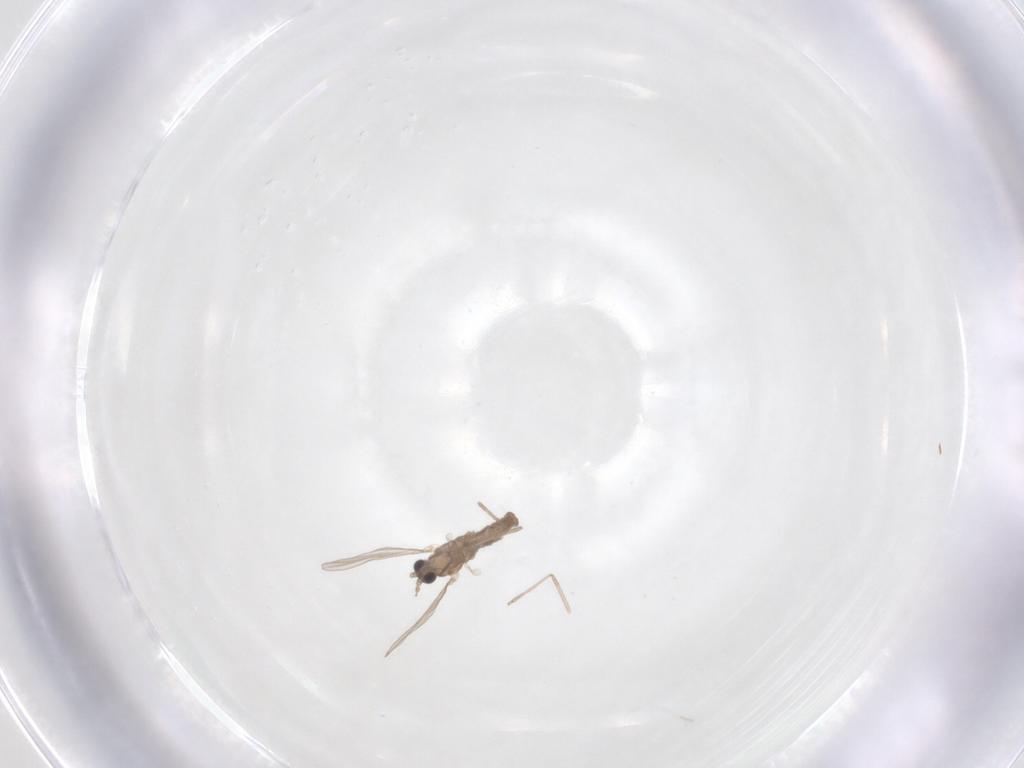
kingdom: Animalia
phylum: Arthropoda
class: Insecta
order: Diptera
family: Ceratopogonidae
